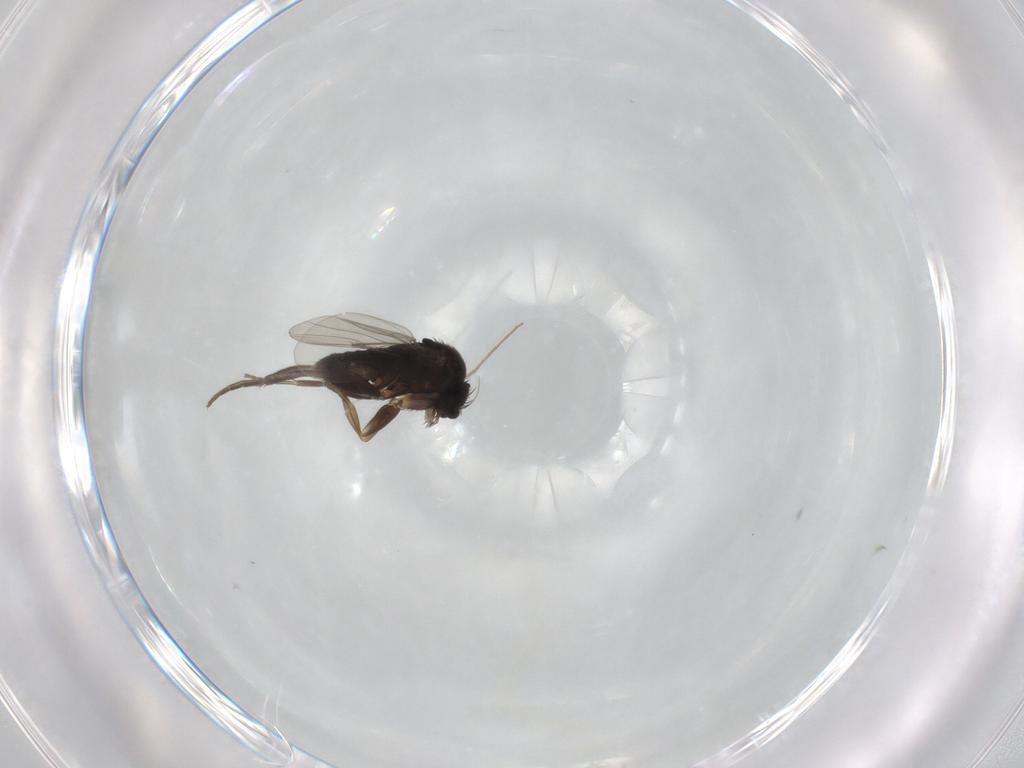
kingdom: Animalia
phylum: Arthropoda
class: Insecta
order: Diptera
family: Phoridae
